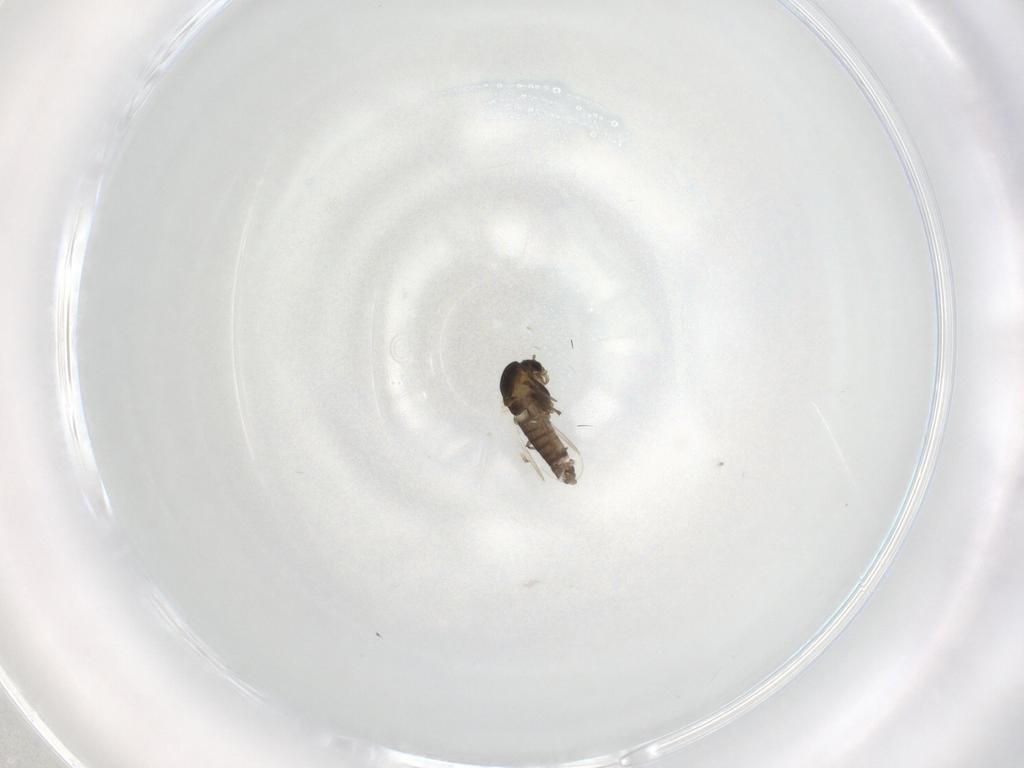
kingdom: Animalia
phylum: Arthropoda
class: Insecta
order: Diptera
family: Chironomidae
